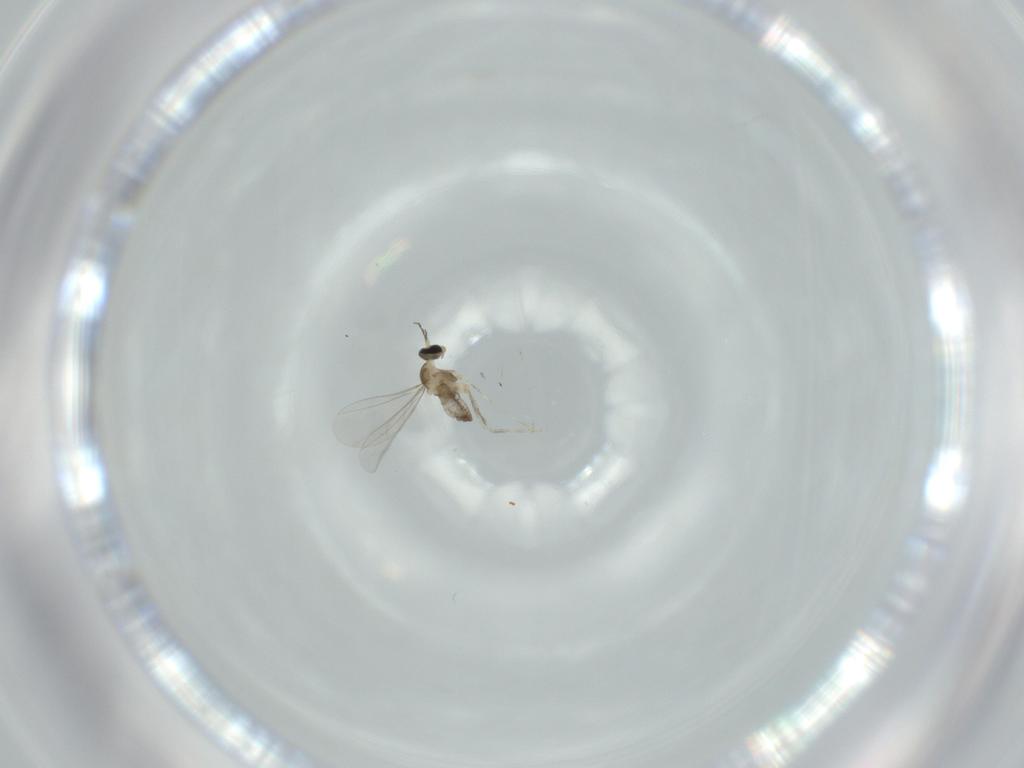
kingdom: Animalia
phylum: Arthropoda
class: Insecta
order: Diptera
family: Cecidomyiidae
